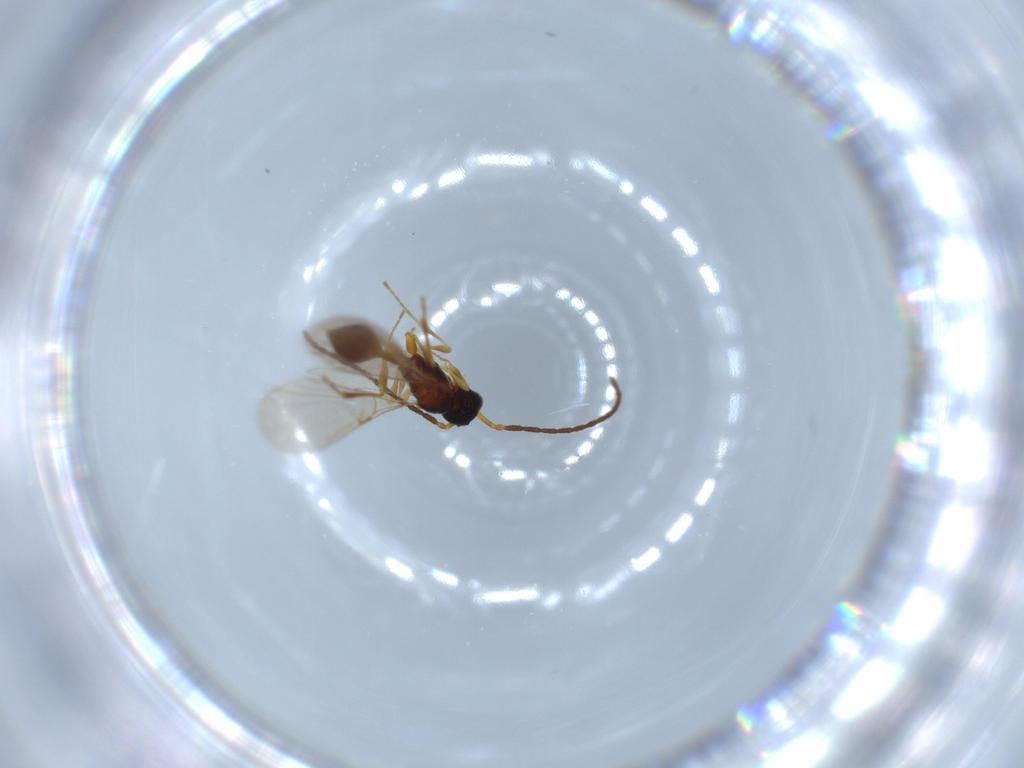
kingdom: Animalia
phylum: Arthropoda
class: Insecta
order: Hymenoptera
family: Diapriidae
